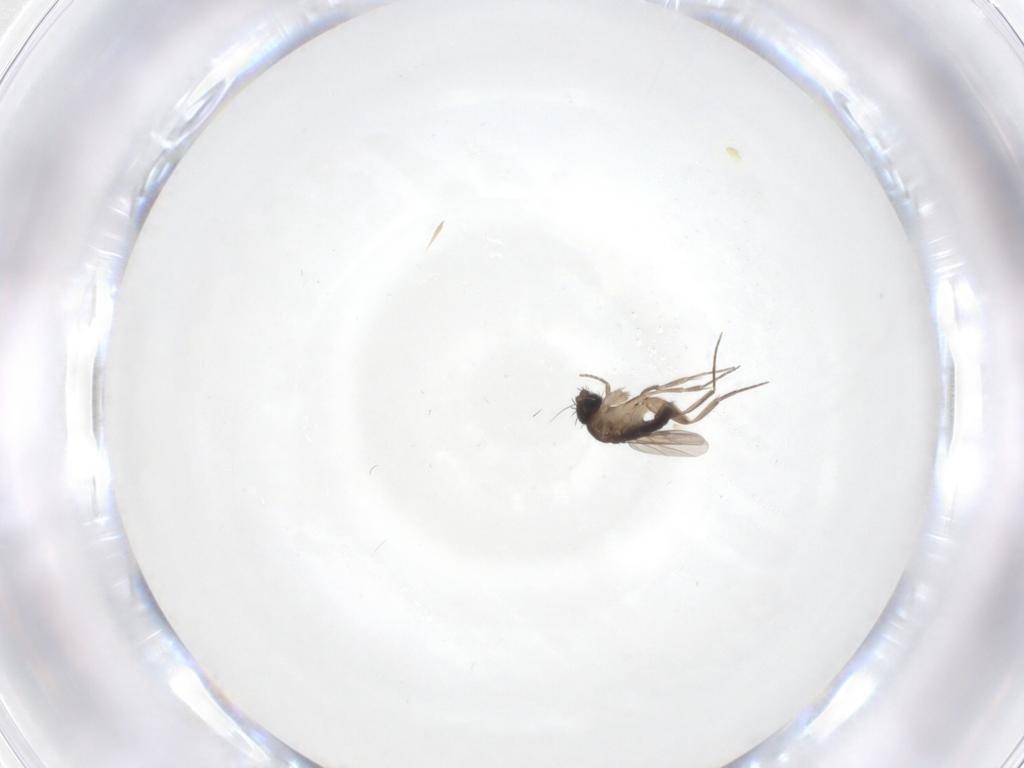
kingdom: Animalia
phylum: Arthropoda
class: Insecta
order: Diptera
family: Phoridae
